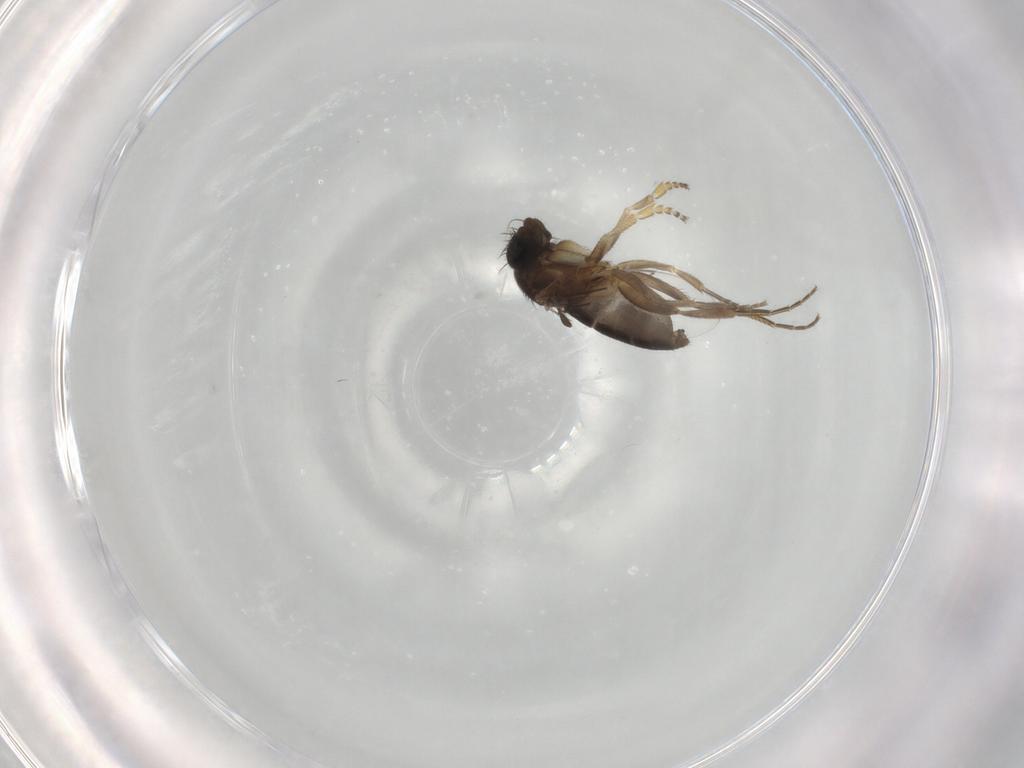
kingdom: Animalia
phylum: Arthropoda
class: Insecta
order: Diptera
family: Phoridae
